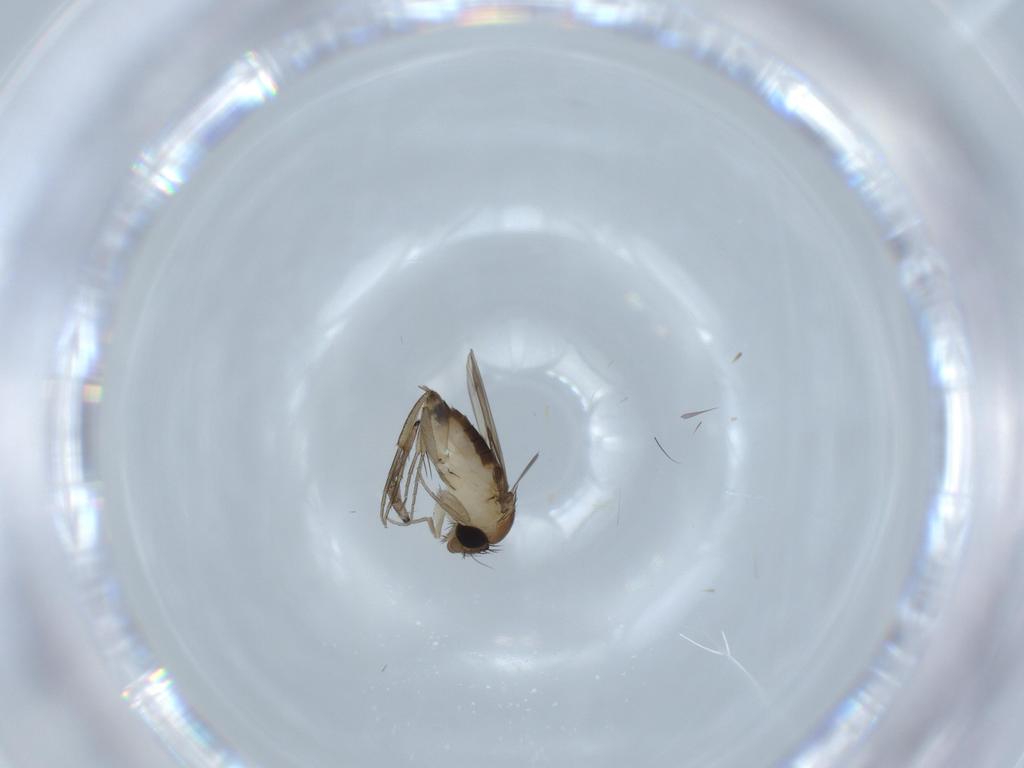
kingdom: Animalia
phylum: Arthropoda
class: Insecta
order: Diptera
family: Phoridae
